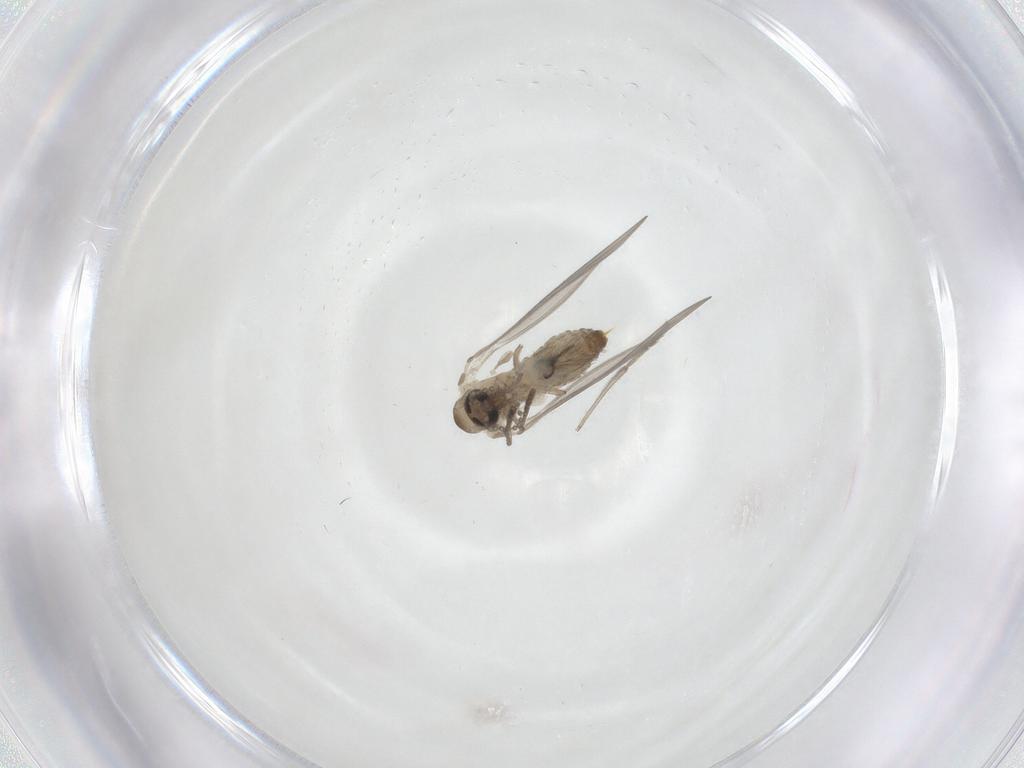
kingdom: Animalia
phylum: Arthropoda
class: Insecta
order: Diptera
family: Psychodidae
